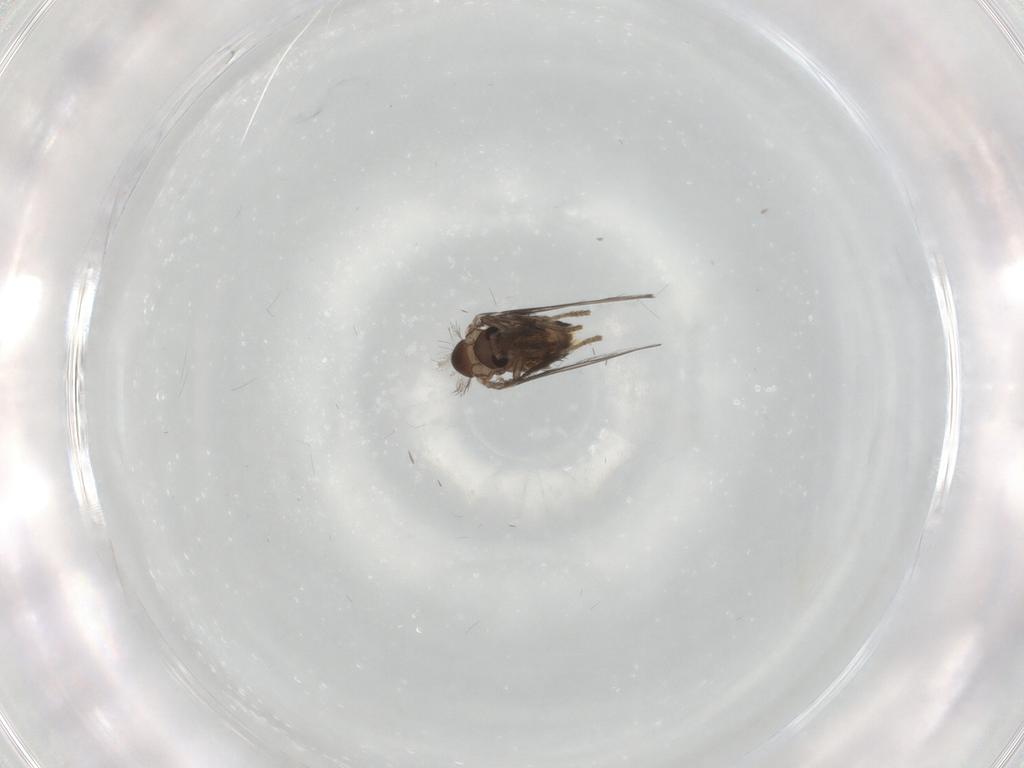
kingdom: Animalia
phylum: Arthropoda
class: Insecta
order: Diptera
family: Psychodidae
